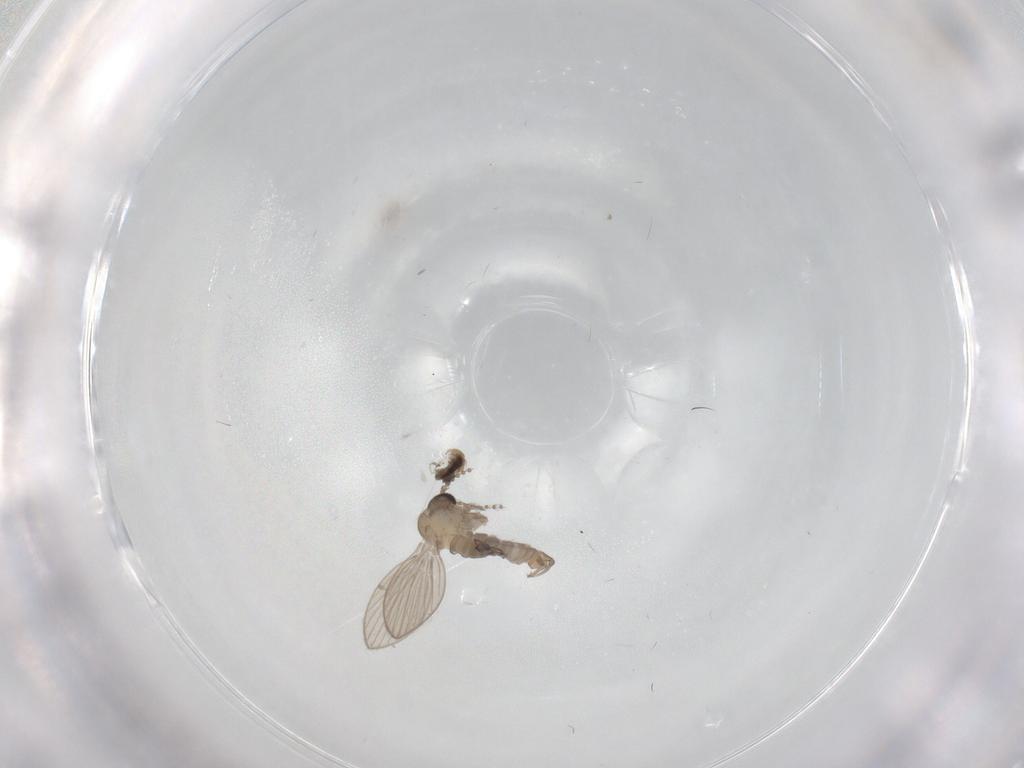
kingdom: Animalia
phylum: Arthropoda
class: Insecta
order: Diptera
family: Psychodidae
